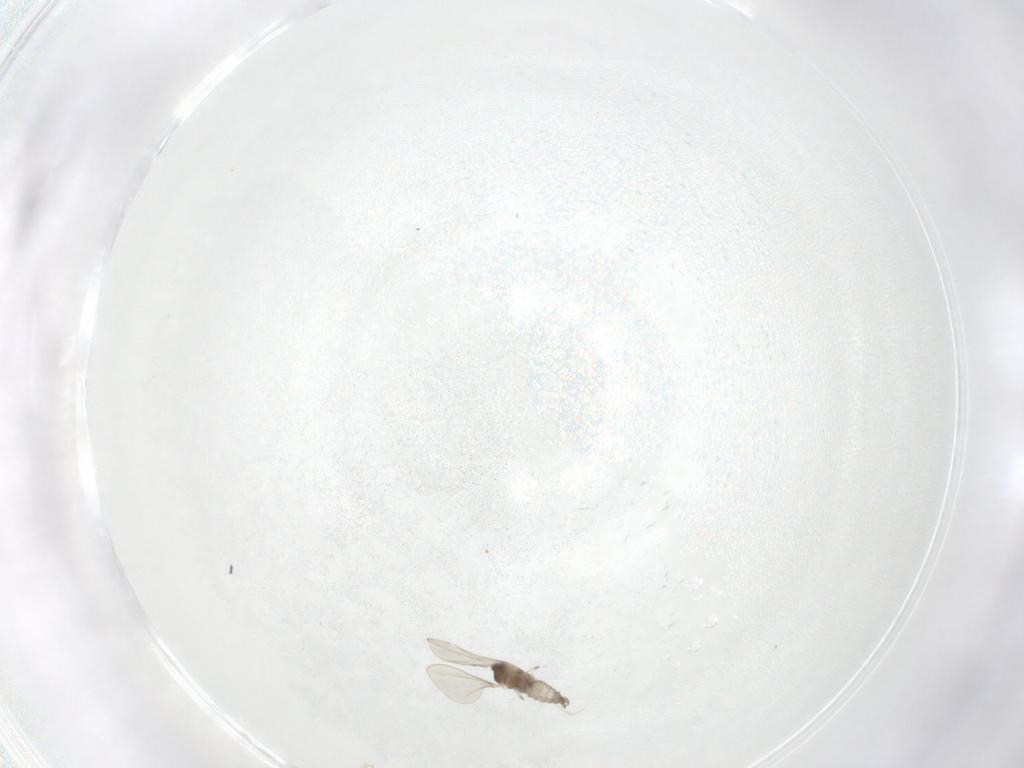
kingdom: Animalia
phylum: Arthropoda
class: Insecta
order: Diptera
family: Cecidomyiidae
